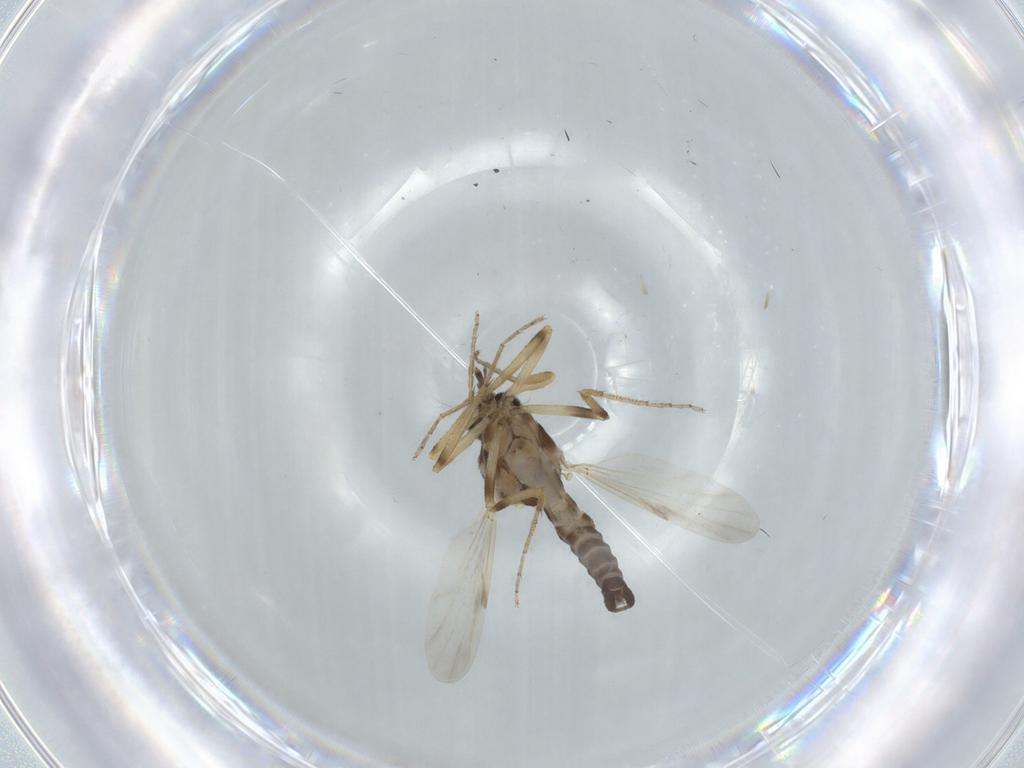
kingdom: Animalia
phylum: Arthropoda
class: Insecta
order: Diptera
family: Ceratopogonidae
